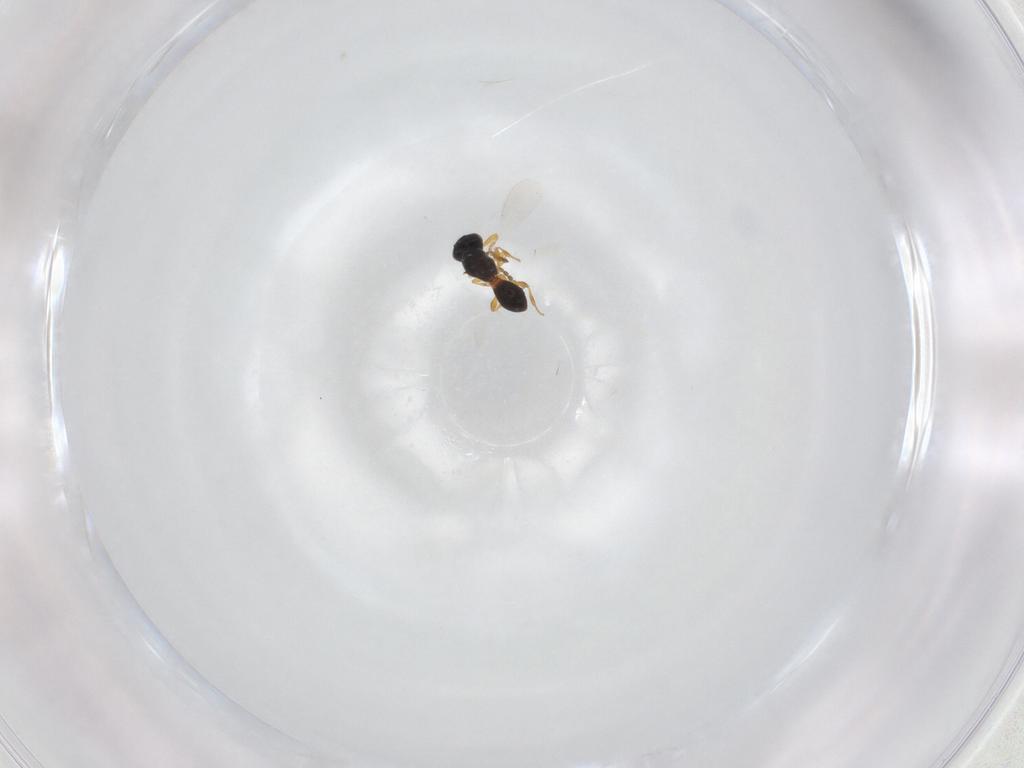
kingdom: Animalia
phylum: Arthropoda
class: Insecta
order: Hymenoptera
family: Platygastridae
